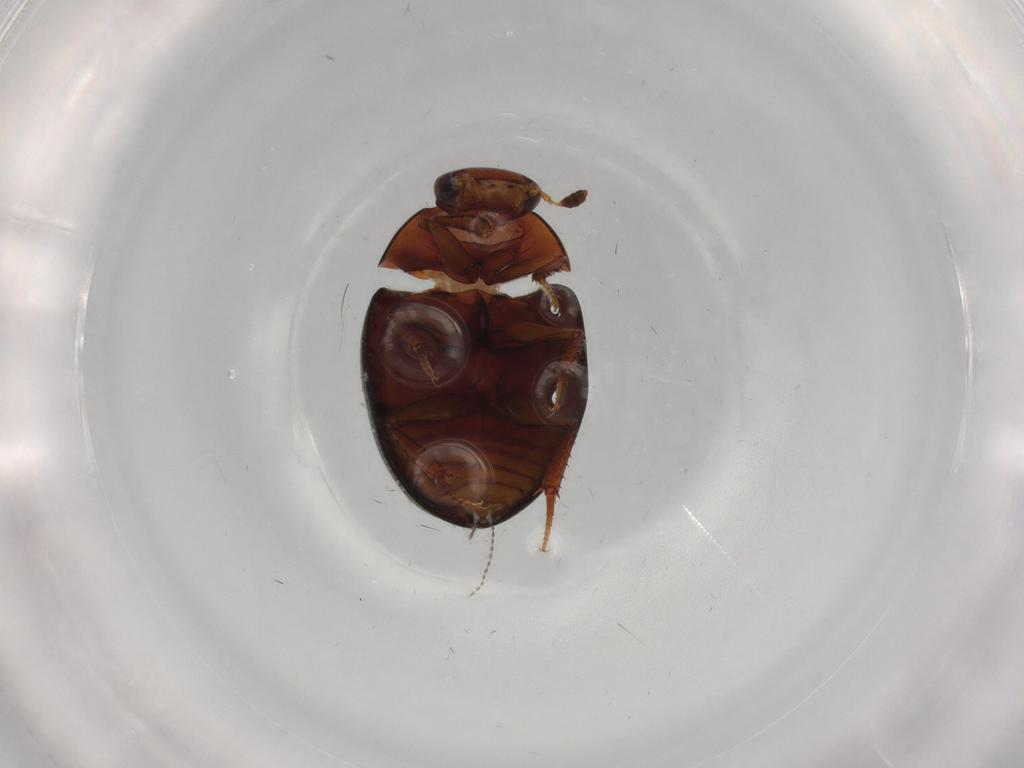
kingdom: Animalia
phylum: Arthropoda
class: Insecta
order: Coleoptera
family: Hydrophilidae
